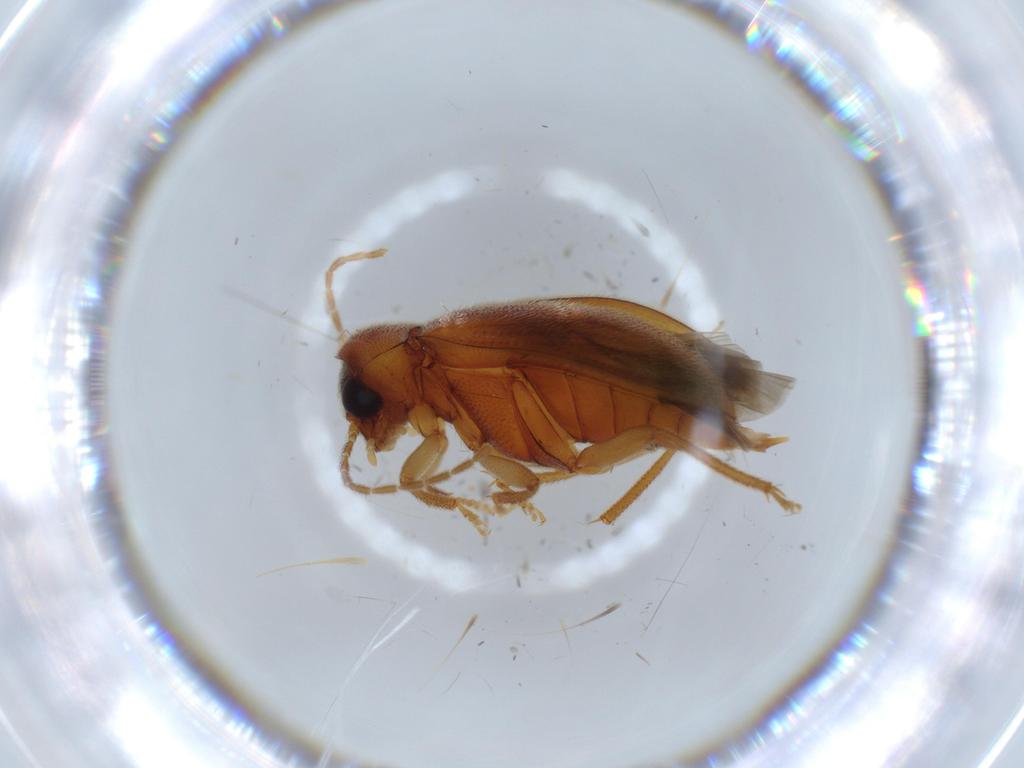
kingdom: Animalia
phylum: Arthropoda
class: Insecta
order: Coleoptera
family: Ptilodactylidae
